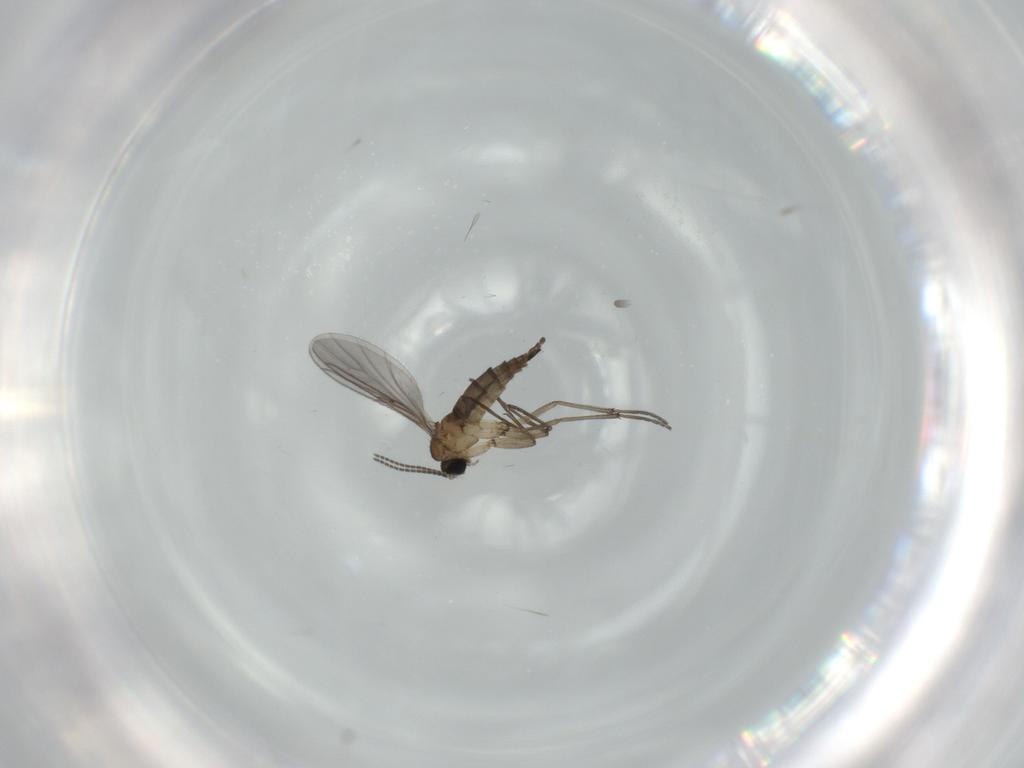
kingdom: Animalia
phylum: Arthropoda
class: Insecta
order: Diptera
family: Sciaridae
